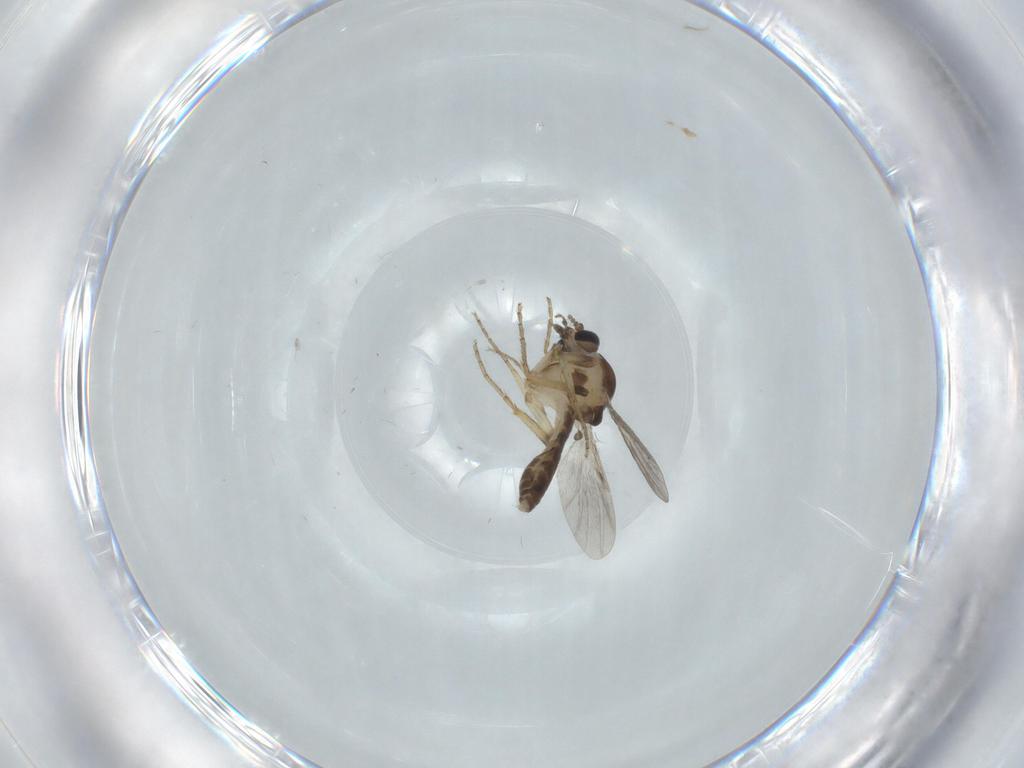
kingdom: Animalia
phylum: Arthropoda
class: Insecta
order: Diptera
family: Ceratopogonidae
